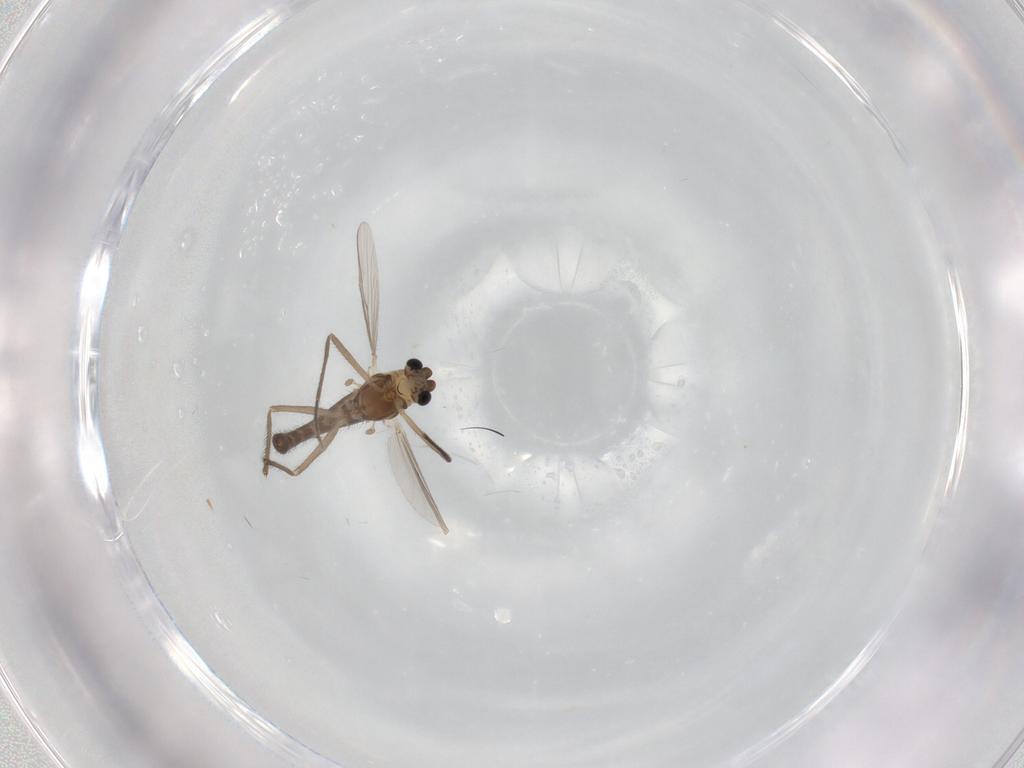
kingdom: Animalia
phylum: Arthropoda
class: Insecta
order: Diptera
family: Chironomidae
